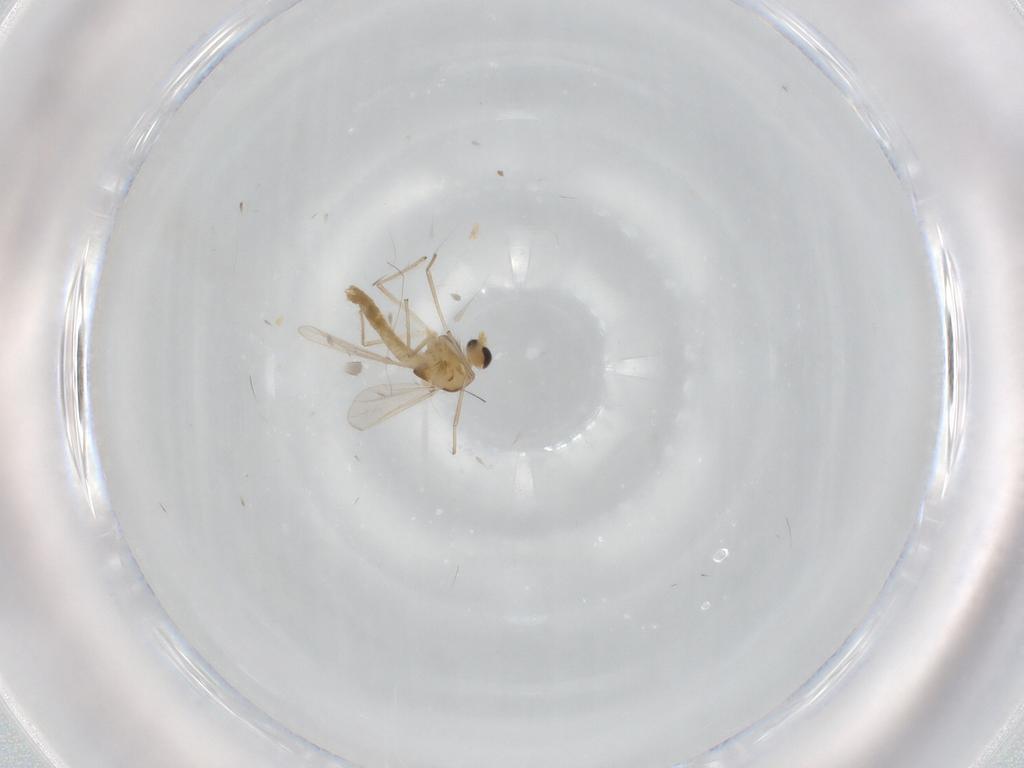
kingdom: Animalia
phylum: Arthropoda
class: Insecta
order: Diptera
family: Chironomidae
